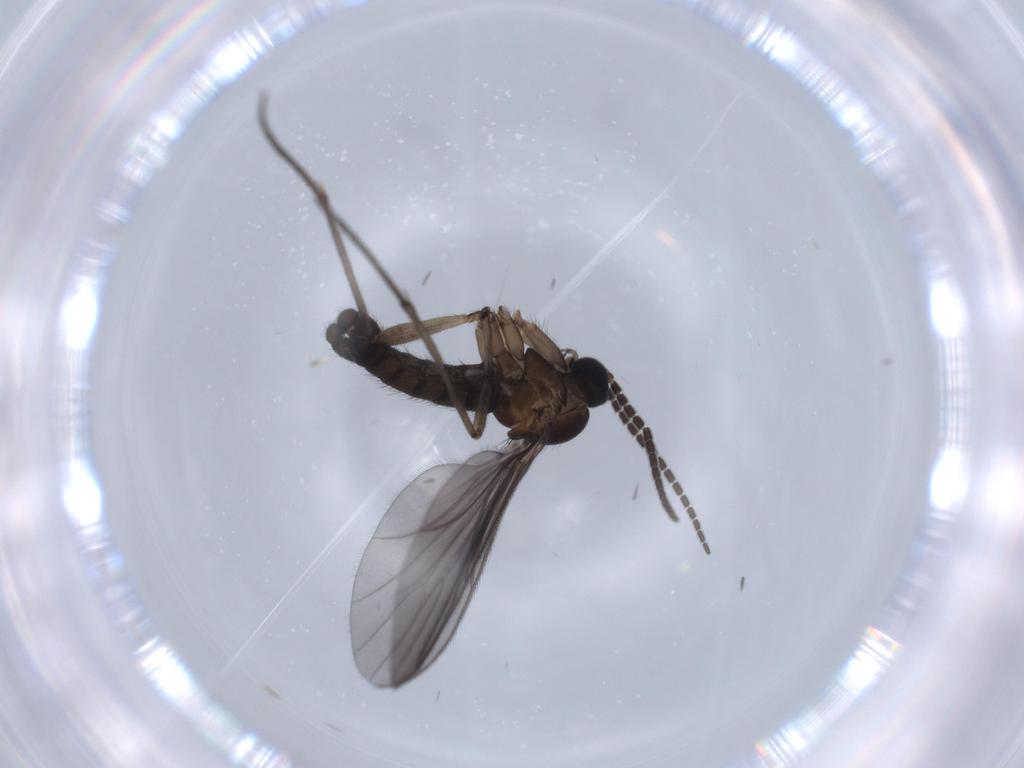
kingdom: Animalia
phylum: Arthropoda
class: Insecta
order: Diptera
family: Sciaridae
